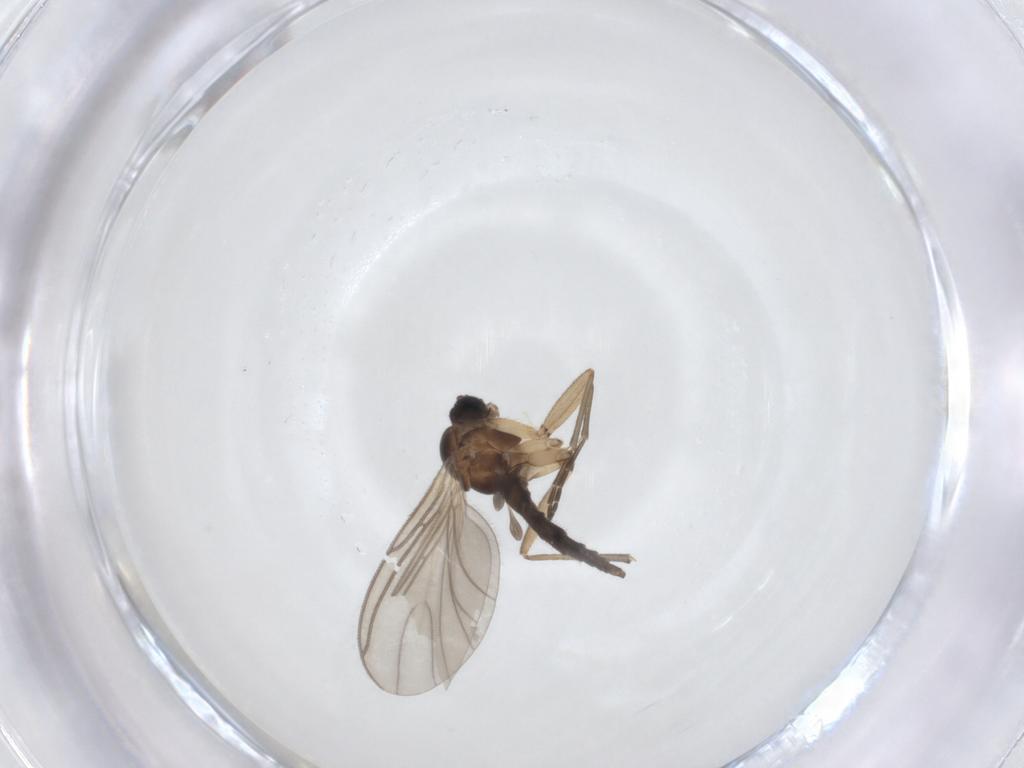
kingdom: Animalia
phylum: Arthropoda
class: Insecta
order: Diptera
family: Sciaridae
